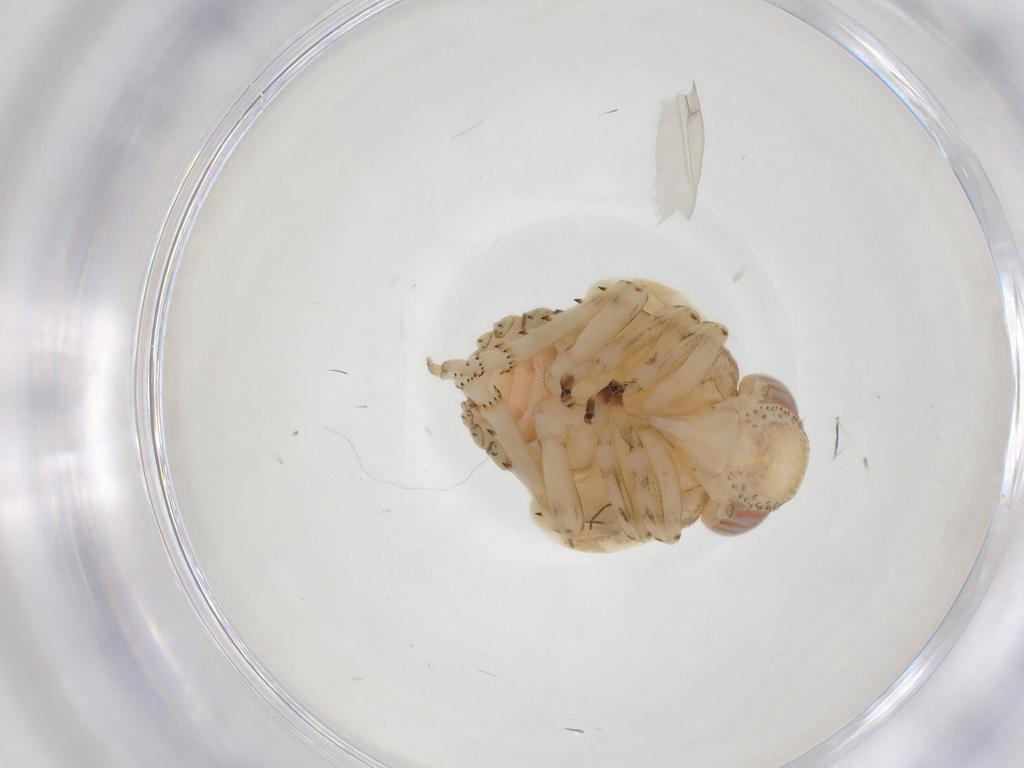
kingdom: Animalia
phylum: Arthropoda
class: Insecta
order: Hemiptera
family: Issidae
